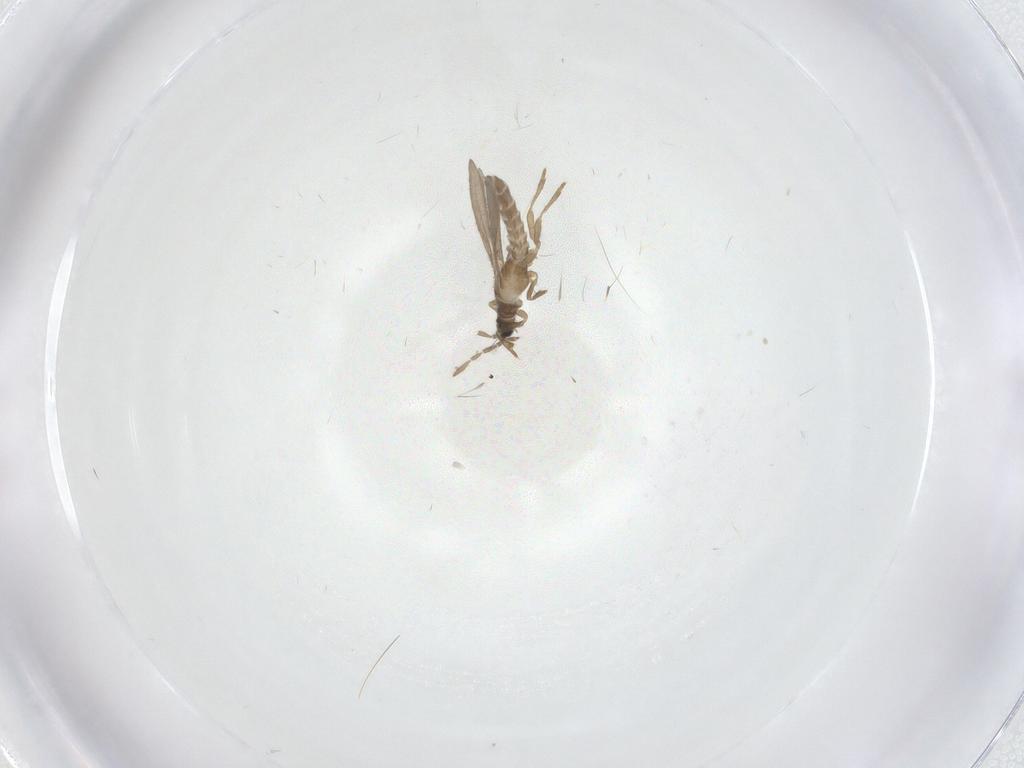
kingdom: Animalia
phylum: Arthropoda
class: Insecta
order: Hemiptera
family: Enicocephalidae
